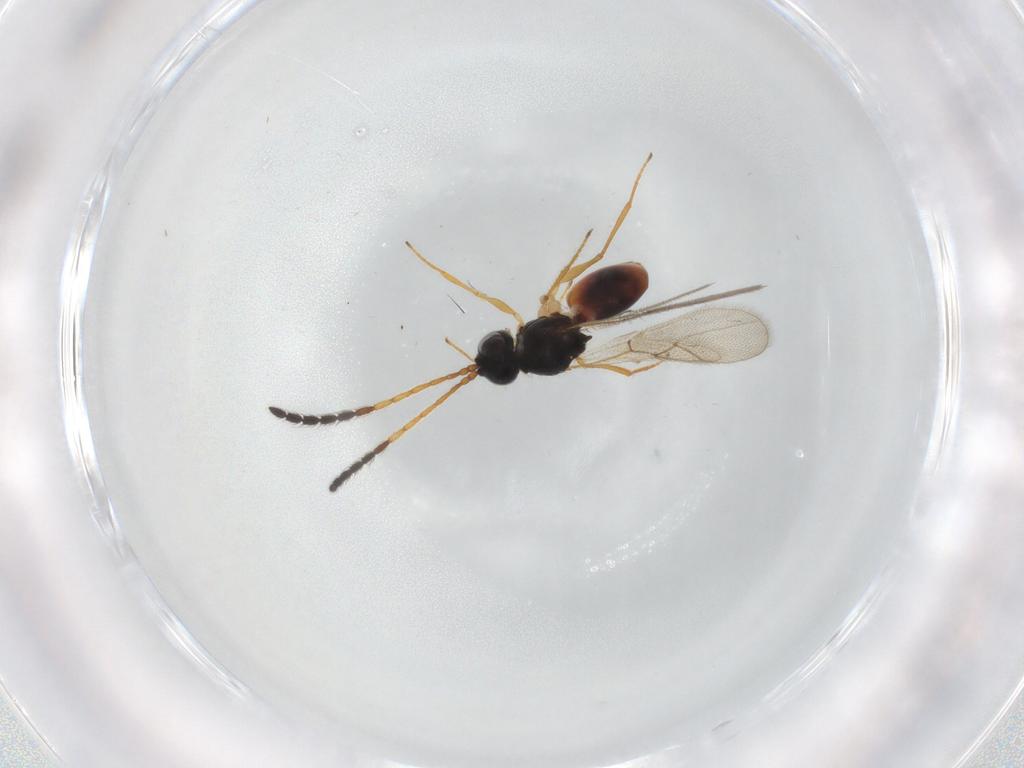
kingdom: Animalia
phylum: Arthropoda
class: Insecta
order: Hymenoptera
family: Figitidae
